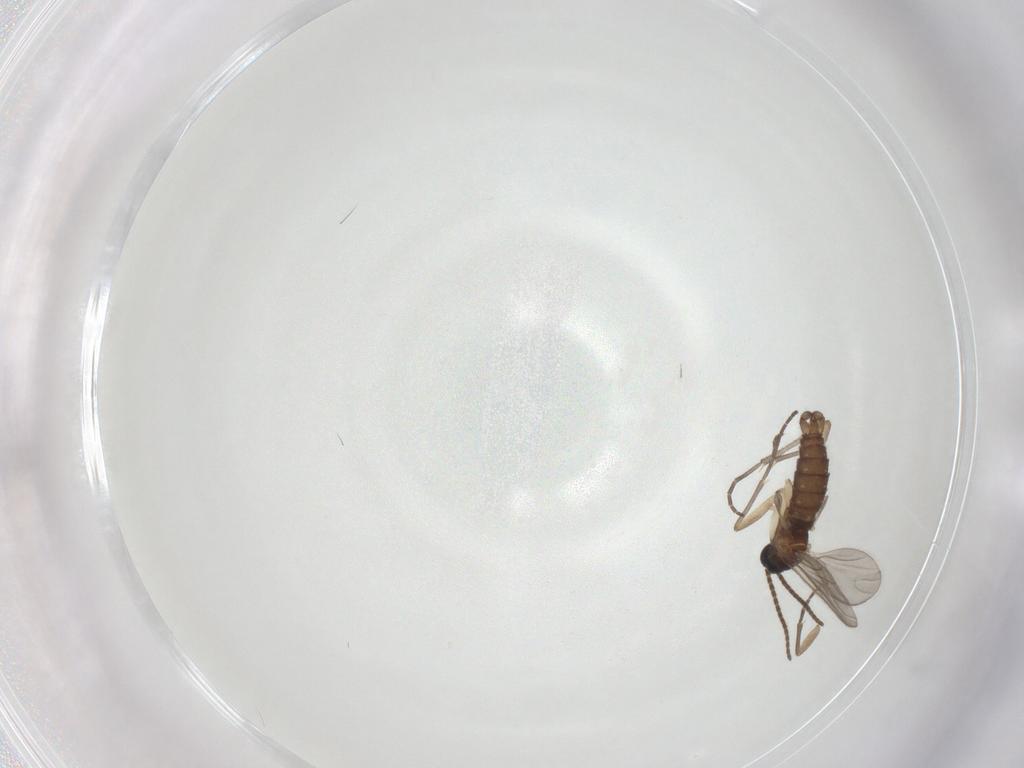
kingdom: Animalia
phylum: Arthropoda
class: Insecta
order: Diptera
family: Sciaridae
